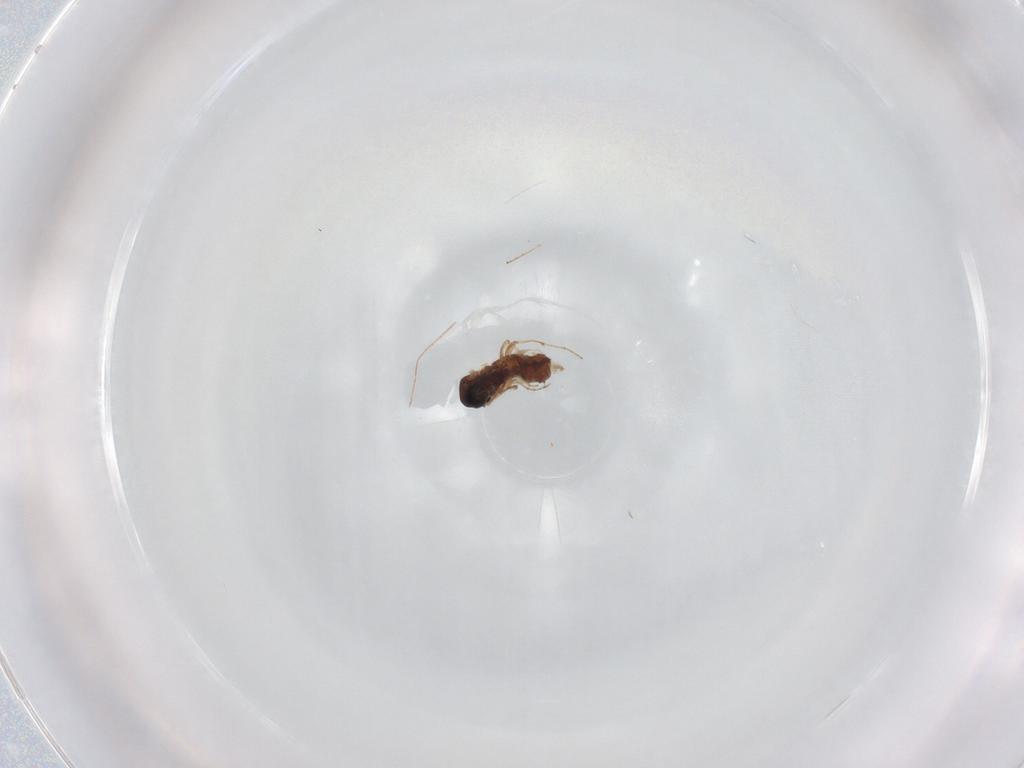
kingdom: Animalia
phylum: Arthropoda
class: Insecta
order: Diptera
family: Ceratopogonidae
